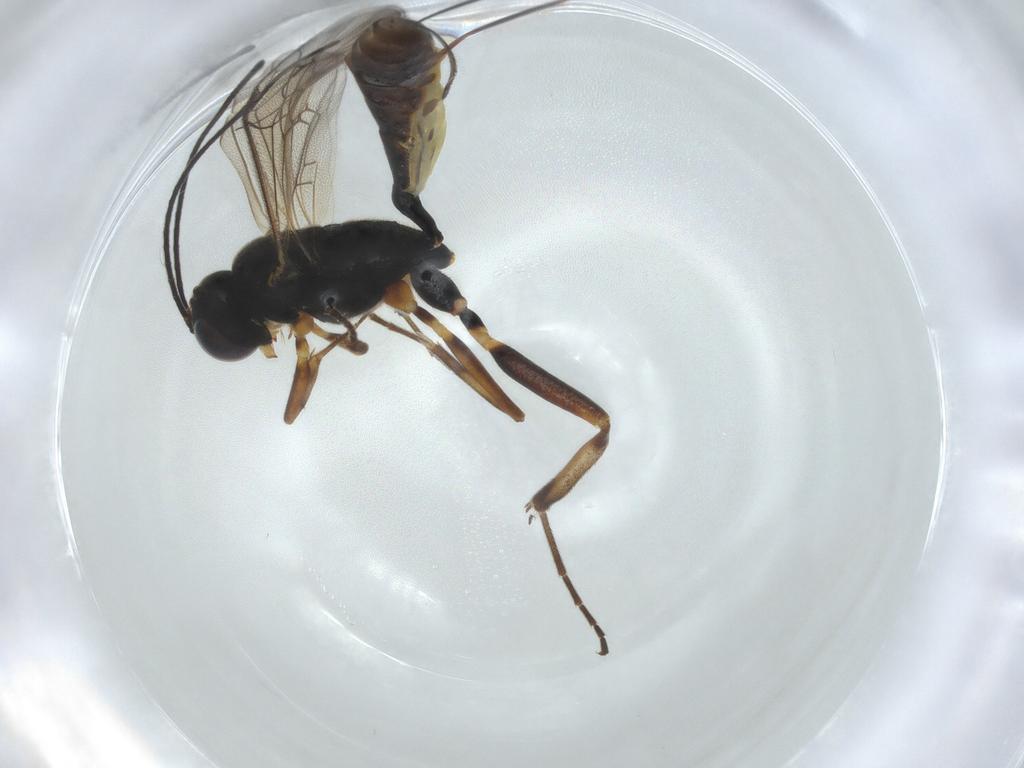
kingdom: Animalia
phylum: Arthropoda
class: Insecta
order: Hymenoptera
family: Ichneumonidae
